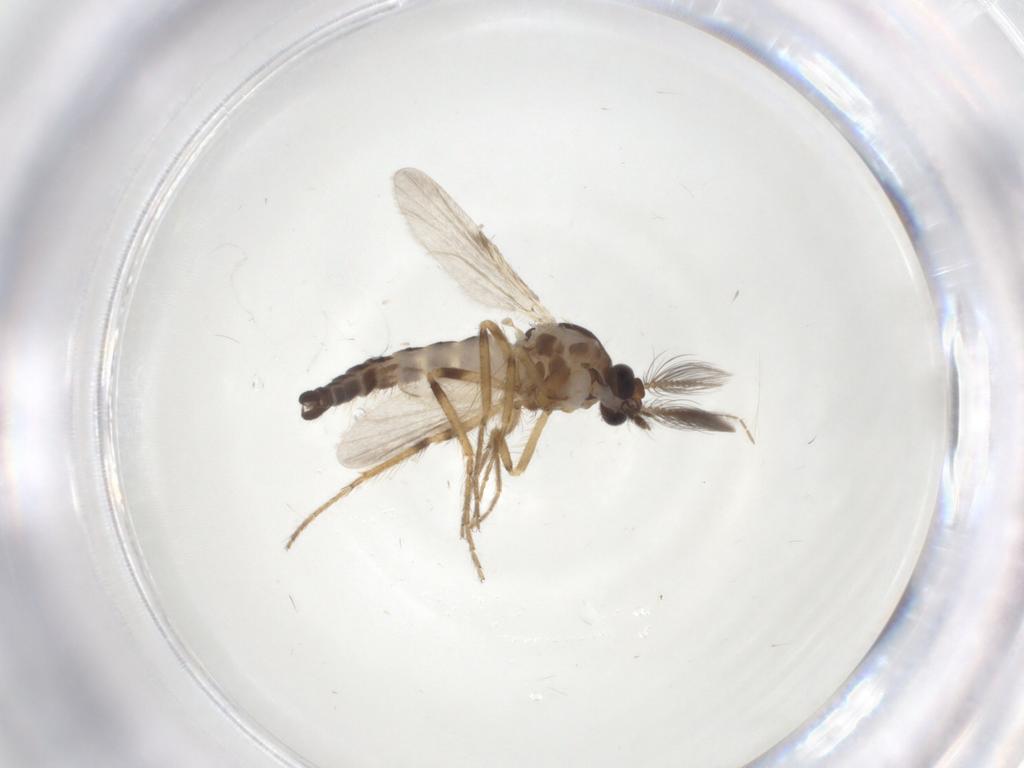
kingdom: Animalia
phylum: Arthropoda
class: Insecta
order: Diptera
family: Ceratopogonidae
